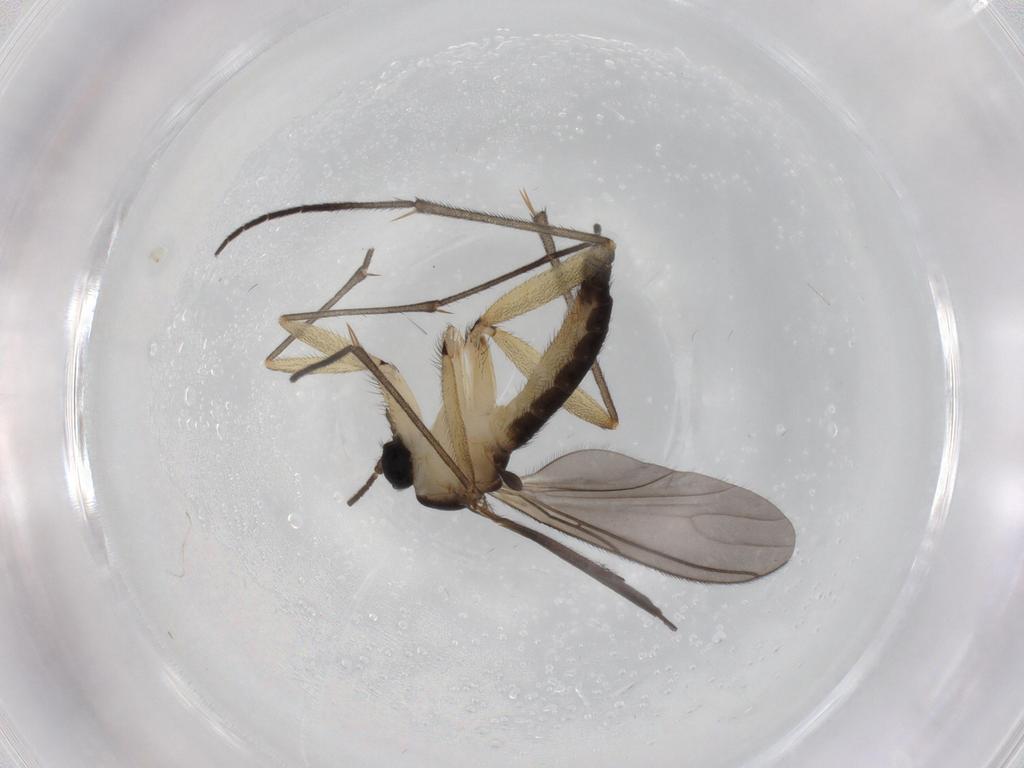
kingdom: Animalia
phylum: Arthropoda
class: Insecta
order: Diptera
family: Sciaridae
